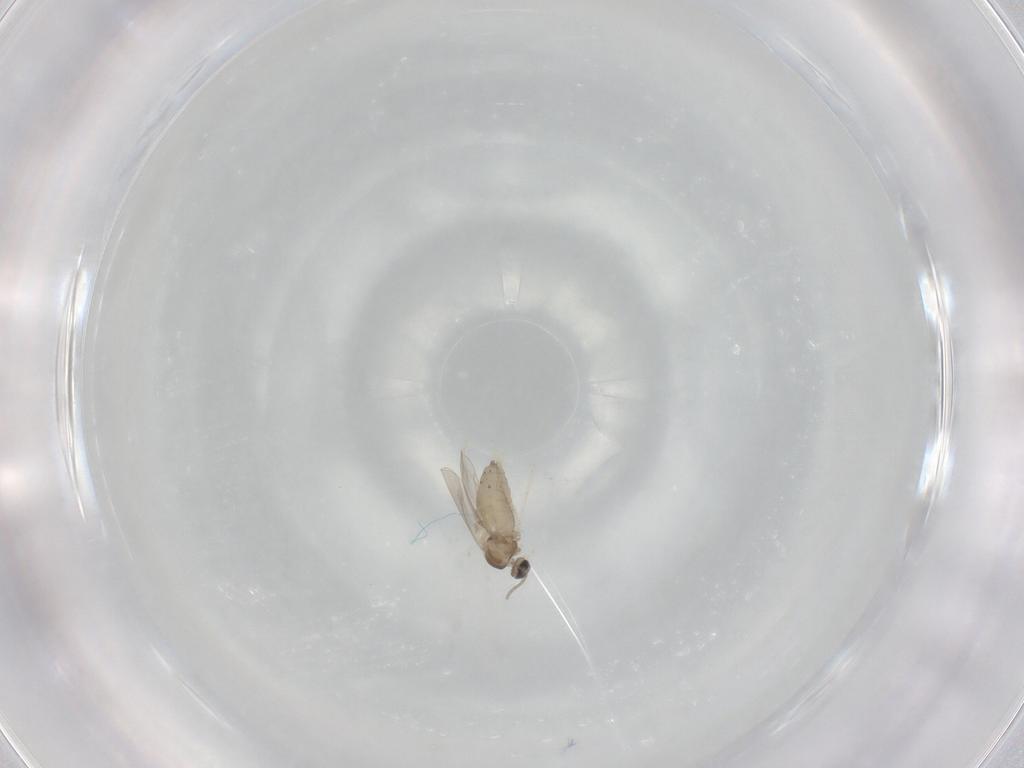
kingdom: Animalia
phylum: Arthropoda
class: Insecta
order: Diptera
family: Cecidomyiidae
